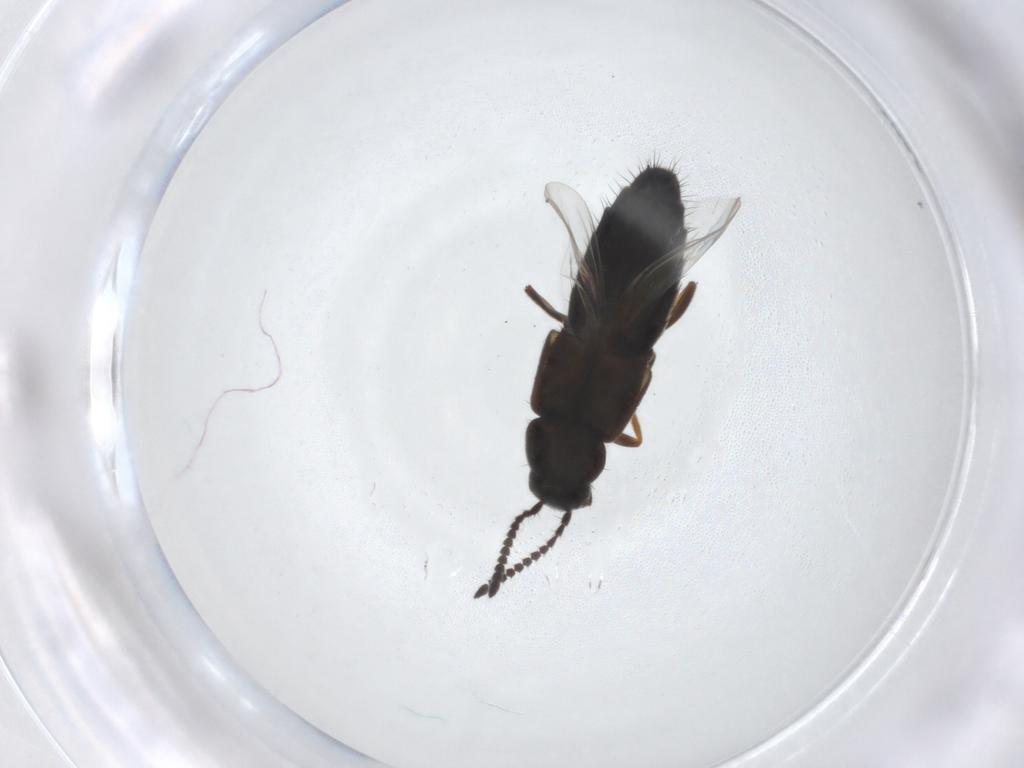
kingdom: Animalia
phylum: Arthropoda
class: Insecta
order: Coleoptera
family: Staphylinidae
